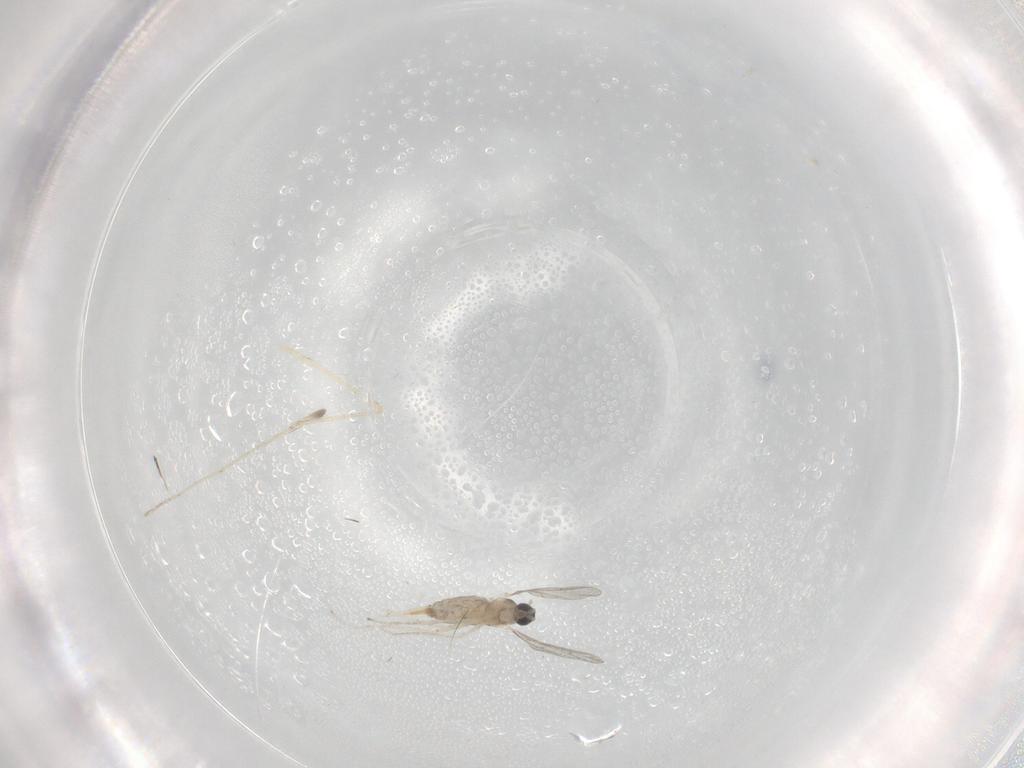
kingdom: Animalia
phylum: Arthropoda
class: Insecta
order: Diptera
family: Cecidomyiidae
